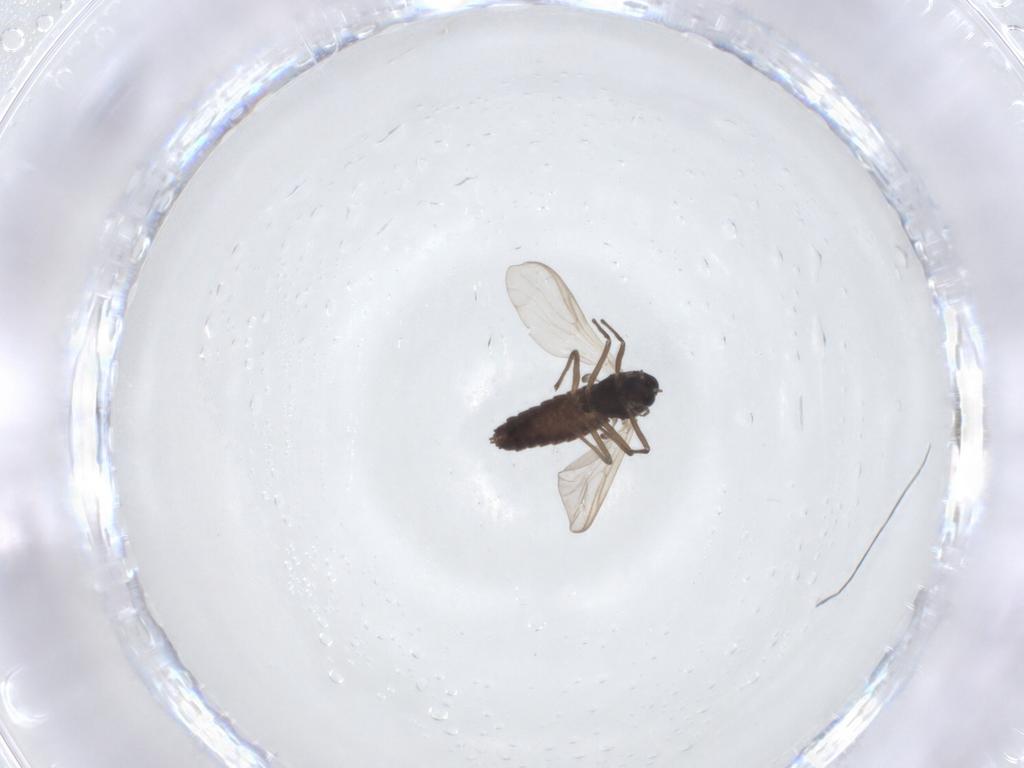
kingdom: Animalia
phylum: Arthropoda
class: Insecta
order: Diptera
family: Chironomidae
